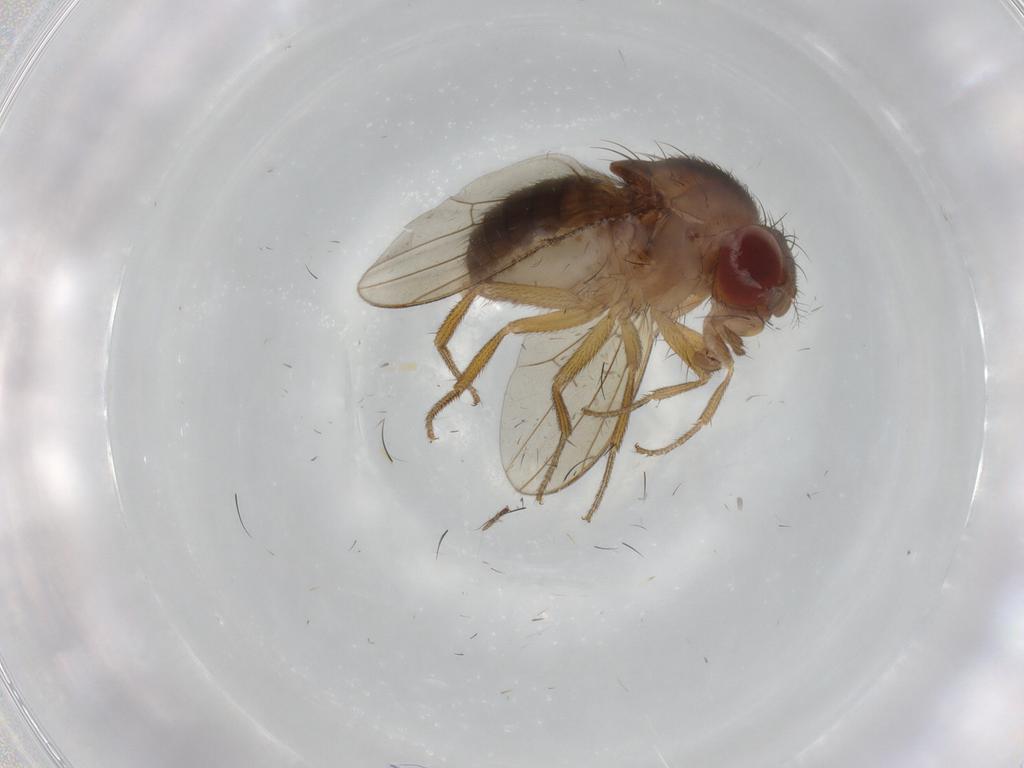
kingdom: Animalia
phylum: Arthropoda
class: Insecta
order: Diptera
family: Drosophilidae
